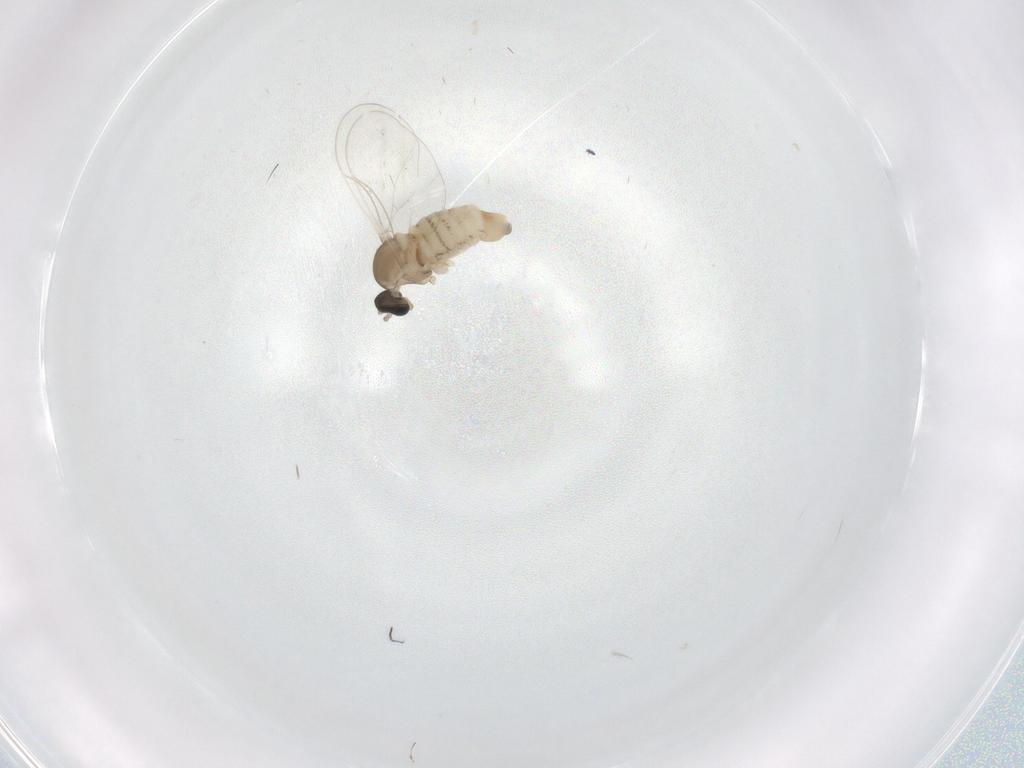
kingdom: Animalia
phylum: Arthropoda
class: Insecta
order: Diptera
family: Cecidomyiidae
